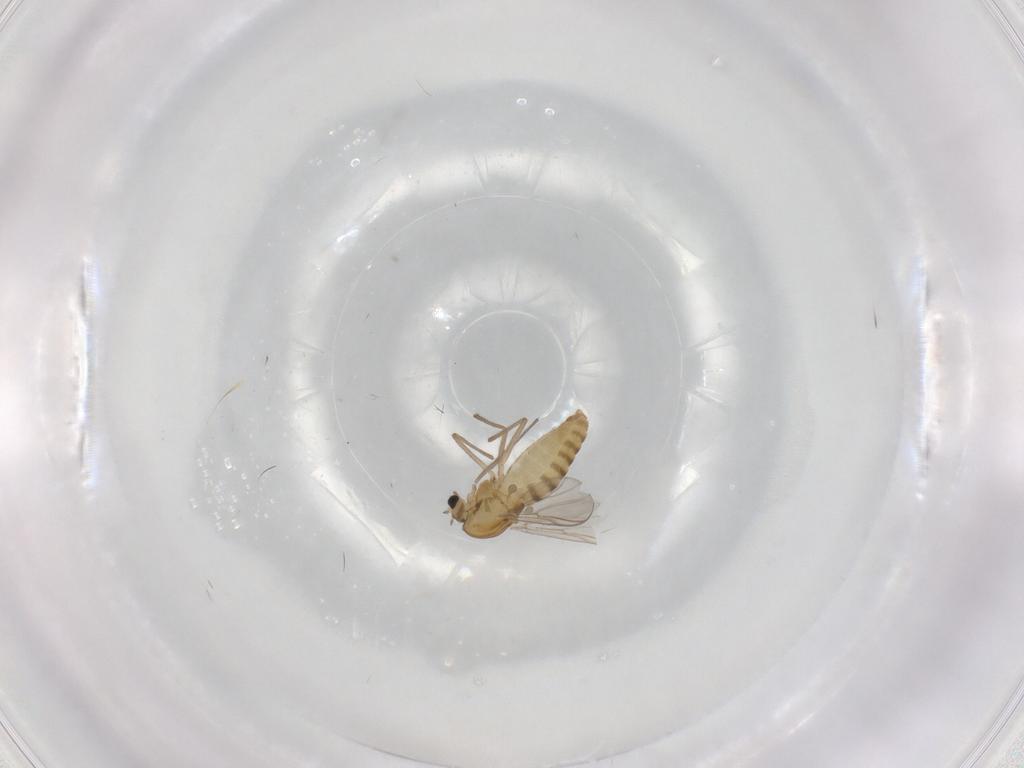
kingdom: Animalia
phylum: Arthropoda
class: Insecta
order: Diptera
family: Chironomidae
